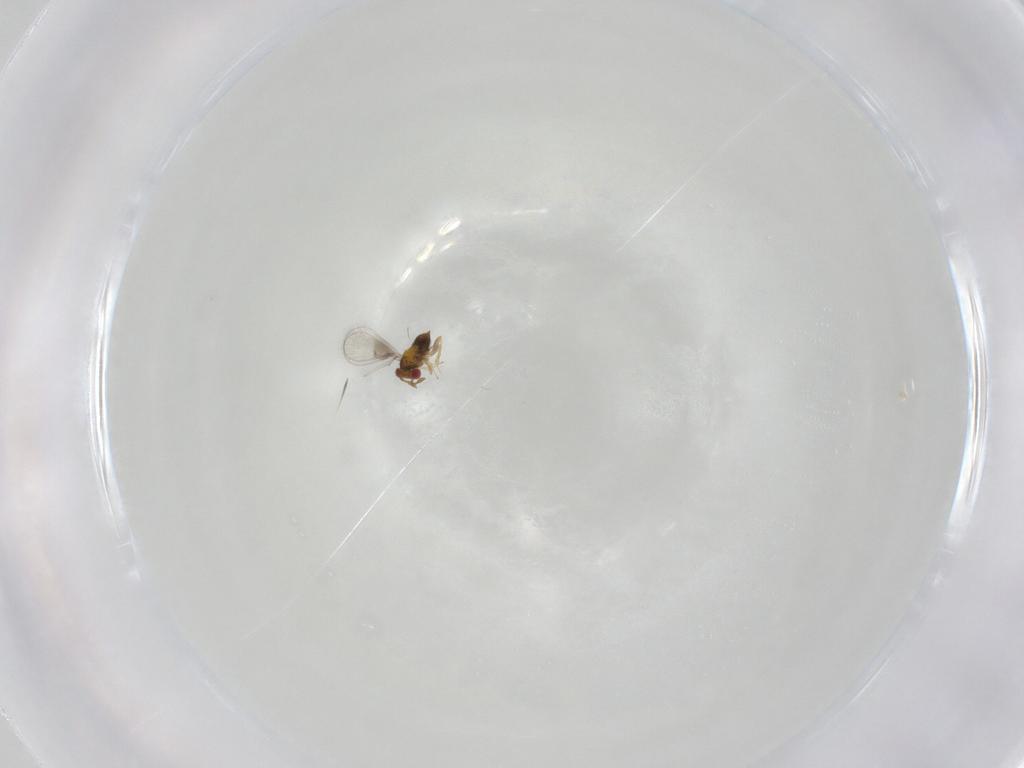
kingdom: Animalia
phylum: Arthropoda
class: Insecta
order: Hymenoptera
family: Trichogrammatidae
